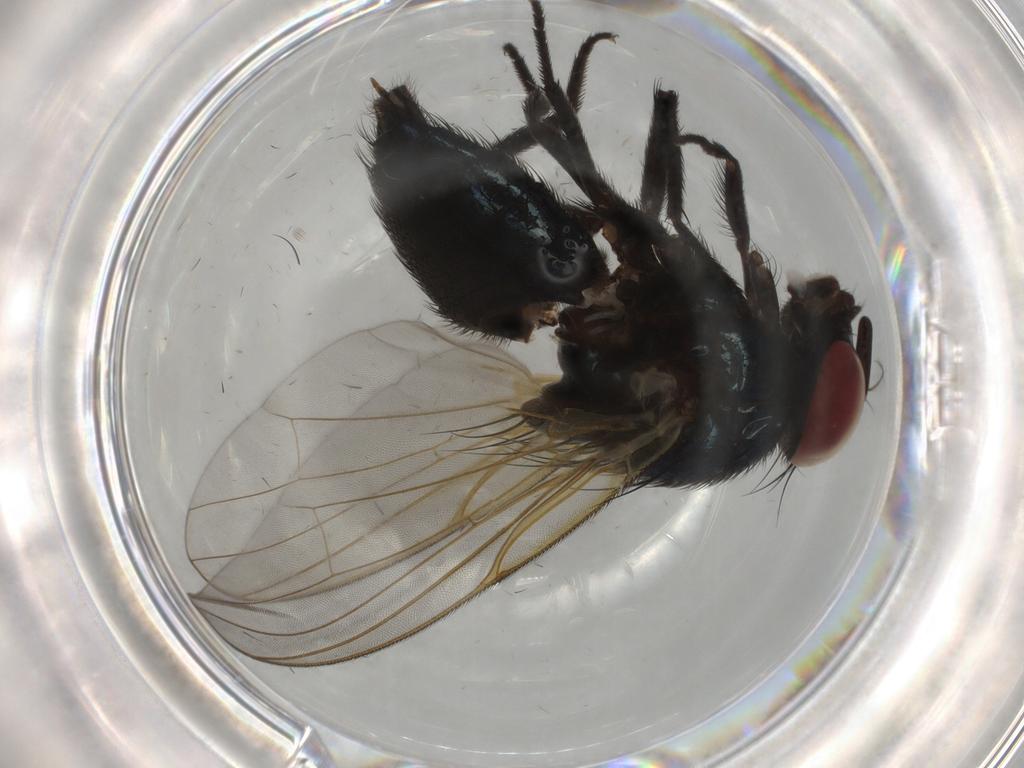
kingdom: Animalia
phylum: Arthropoda
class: Insecta
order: Diptera
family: Lonchaeidae
